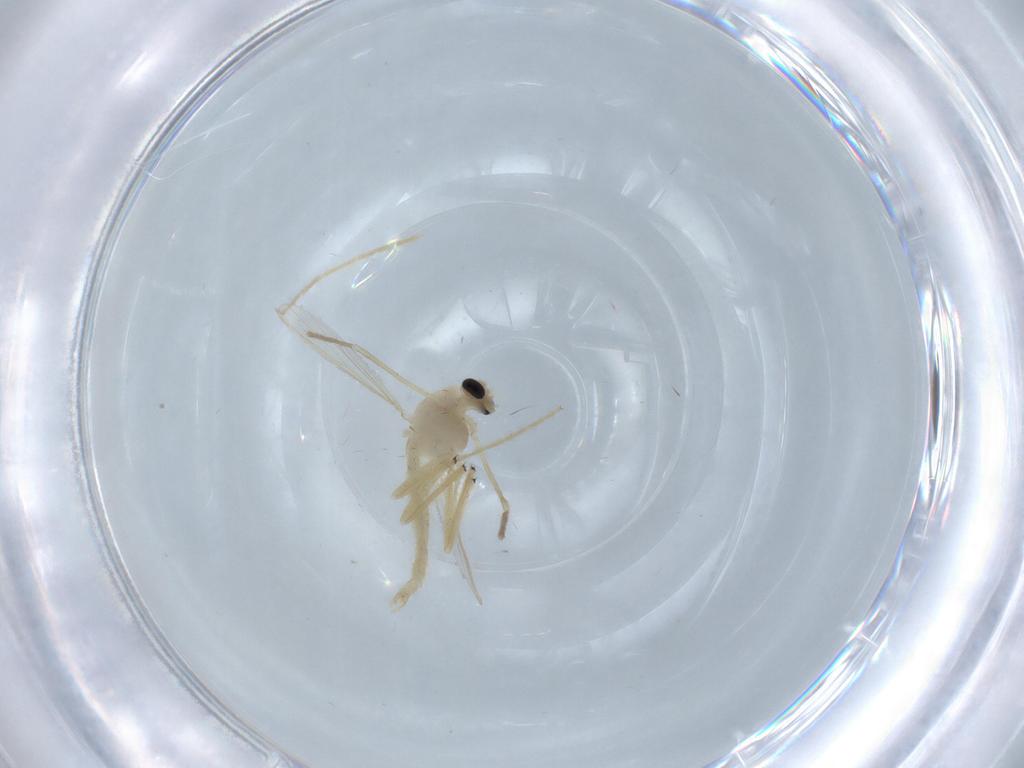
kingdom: Animalia
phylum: Arthropoda
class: Insecta
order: Diptera
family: Chironomidae
